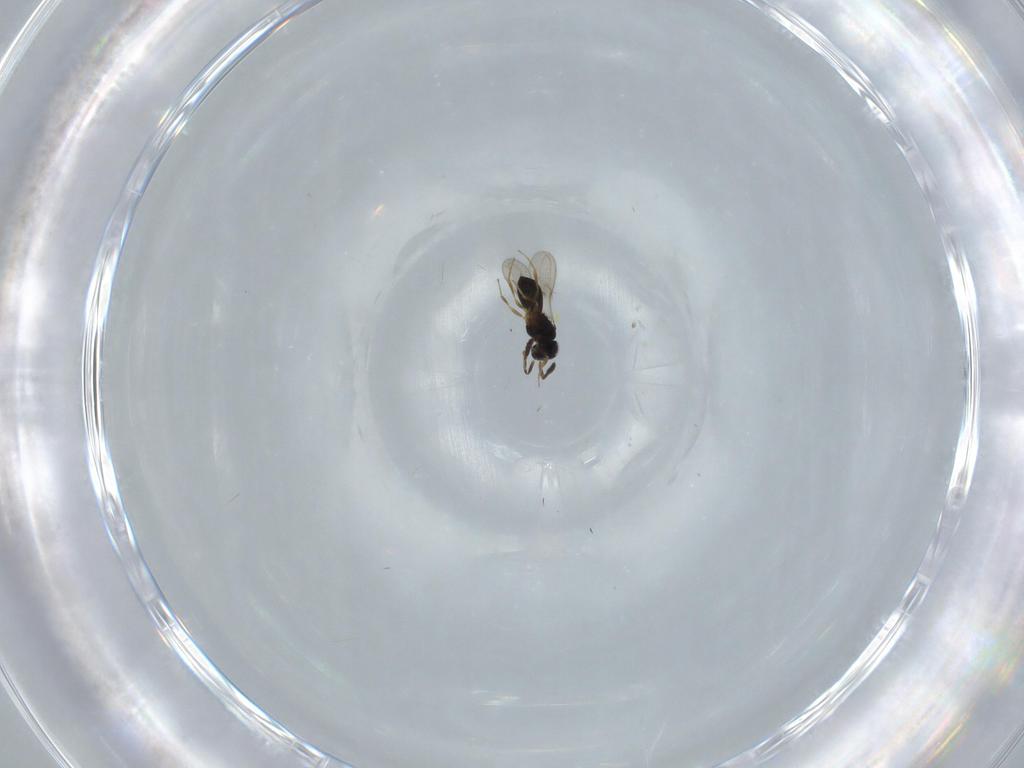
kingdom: Animalia
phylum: Arthropoda
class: Insecta
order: Hymenoptera
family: Scelionidae
